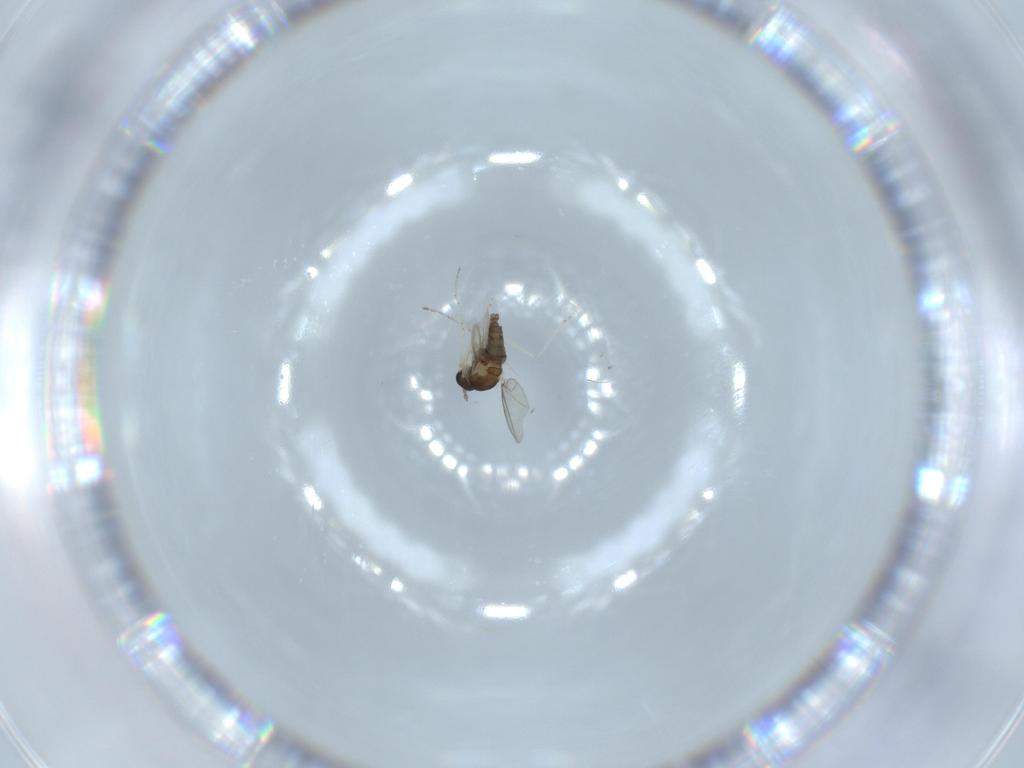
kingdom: Animalia
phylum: Arthropoda
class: Insecta
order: Diptera
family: Cecidomyiidae
